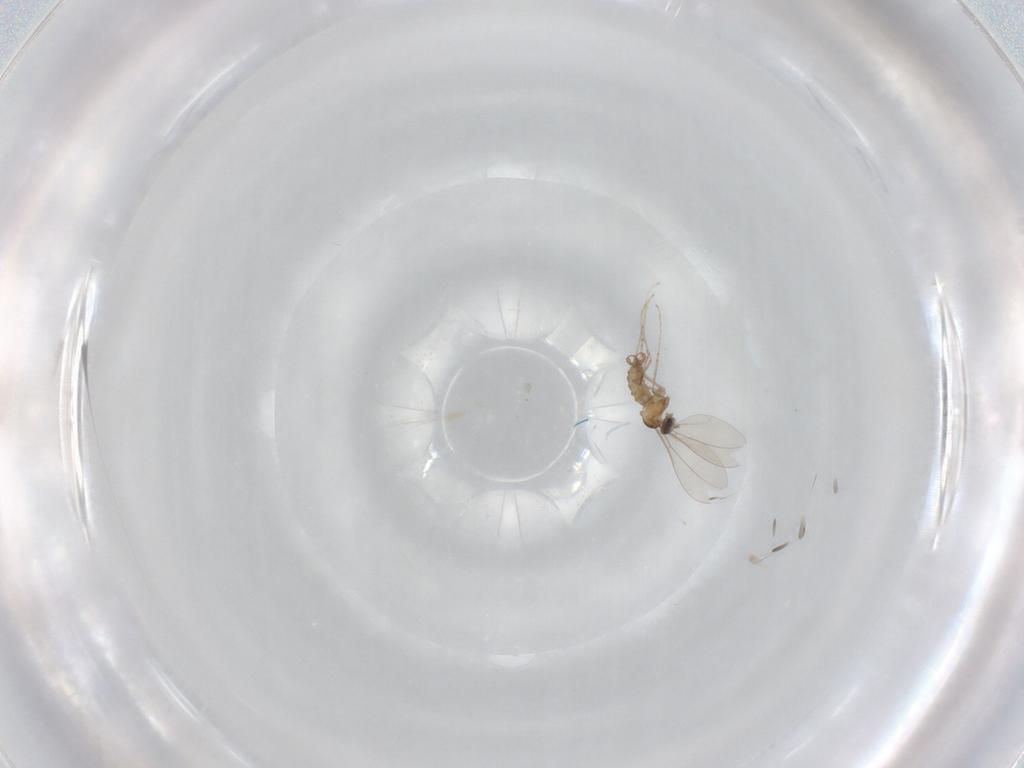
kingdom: Animalia
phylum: Arthropoda
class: Insecta
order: Diptera
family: Cecidomyiidae
